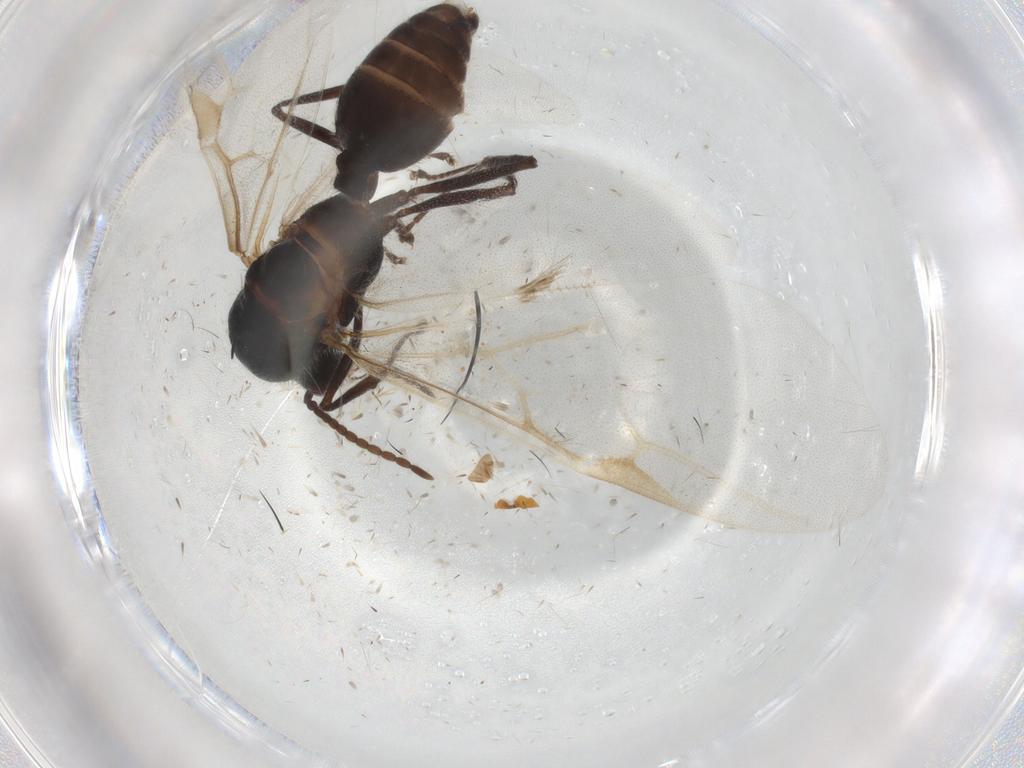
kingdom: Animalia
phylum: Arthropoda
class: Insecta
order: Hymenoptera
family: Formicidae
